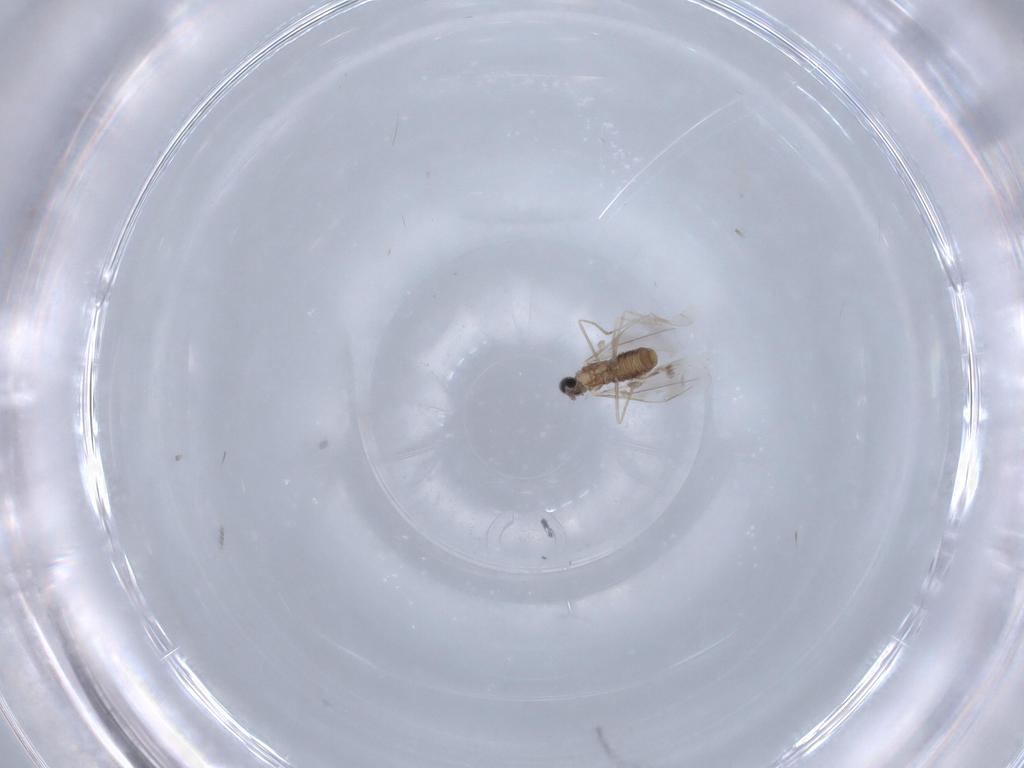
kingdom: Animalia
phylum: Arthropoda
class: Insecta
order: Diptera
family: Cecidomyiidae
